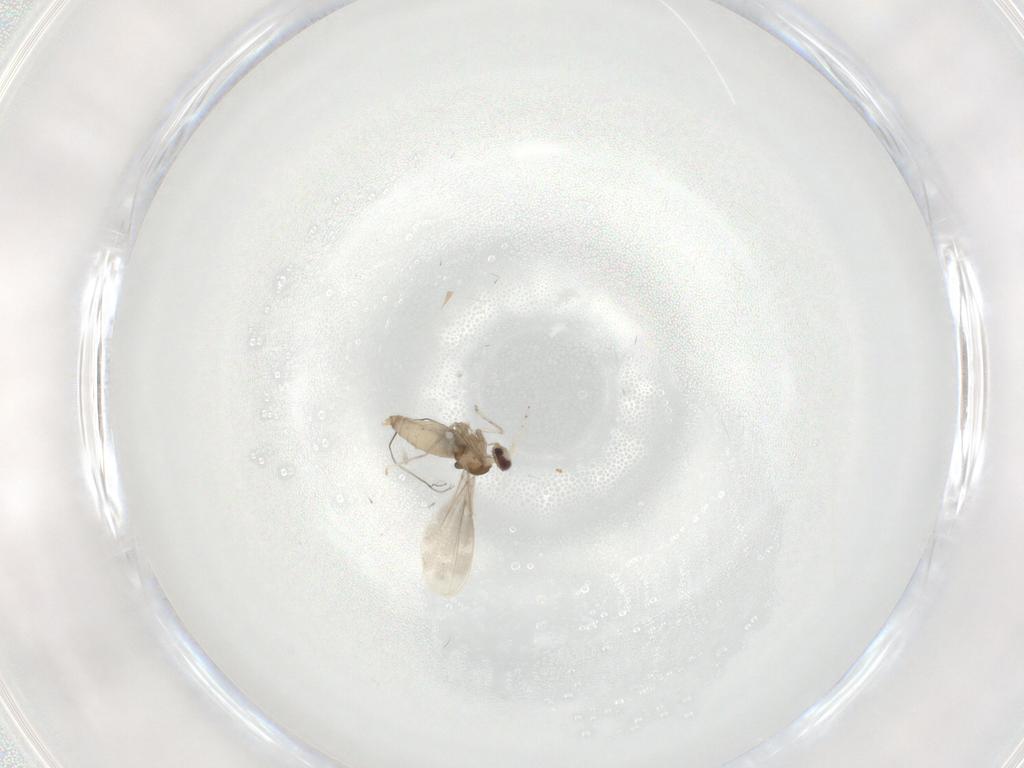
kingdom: Animalia
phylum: Arthropoda
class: Insecta
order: Diptera
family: Cecidomyiidae
